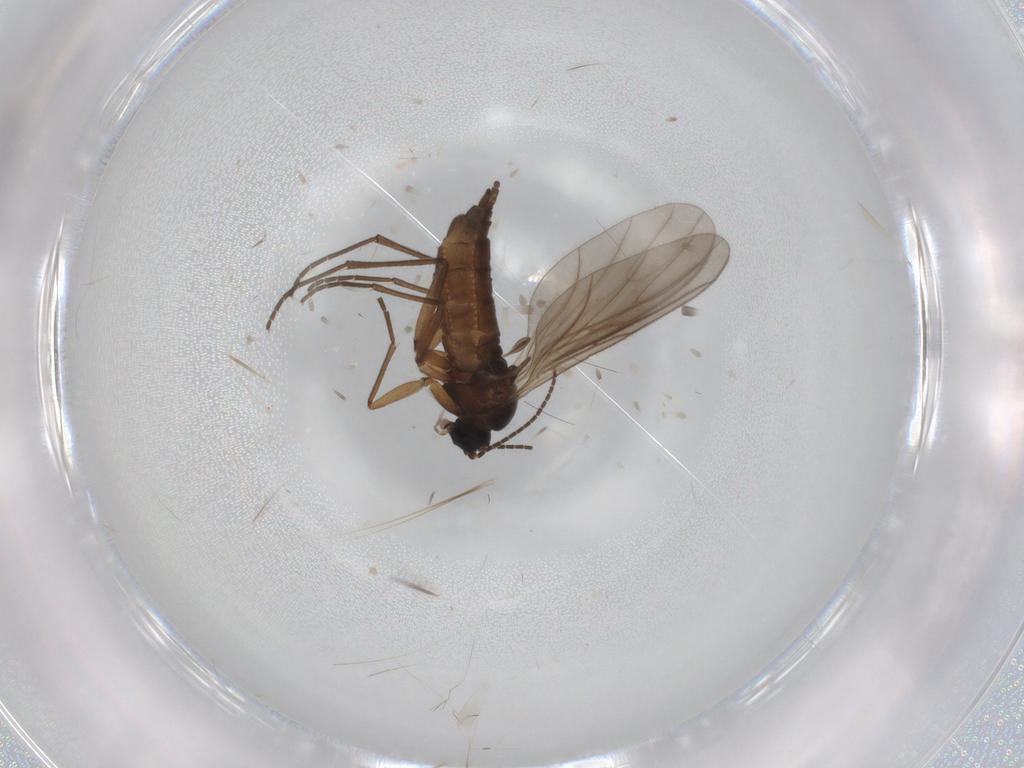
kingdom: Animalia
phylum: Arthropoda
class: Insecta
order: Diptera
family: Sciaridae
